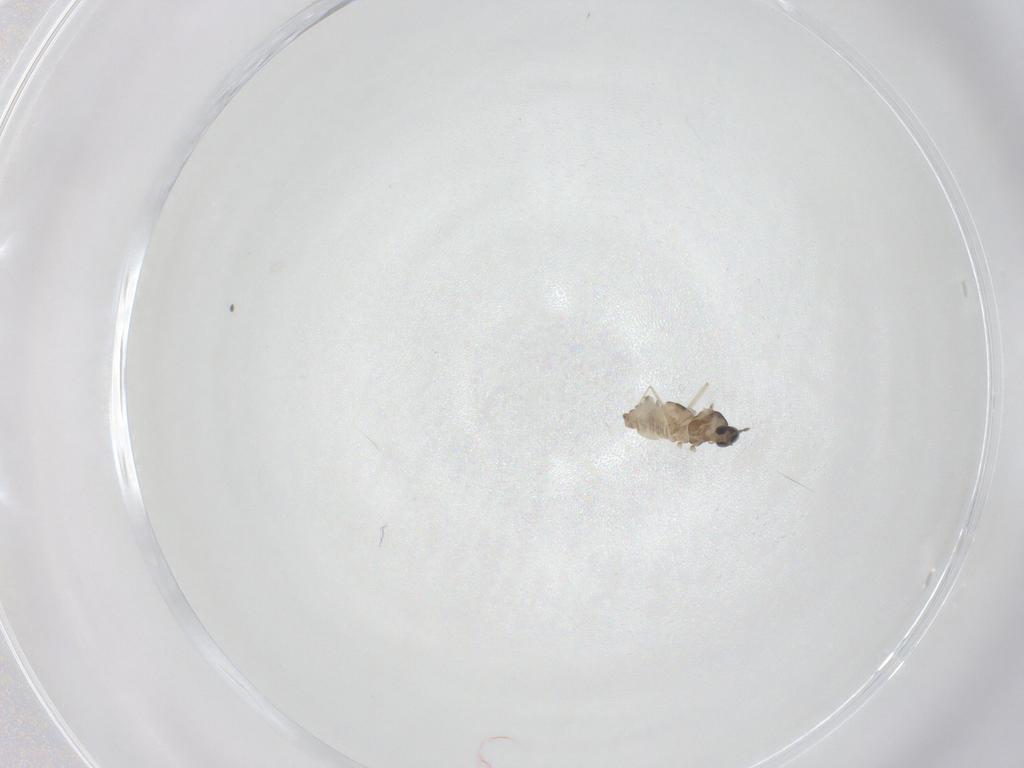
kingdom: Animalia
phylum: Arthropoda
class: Insecta
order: Diptera
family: Cecidomyiidae
